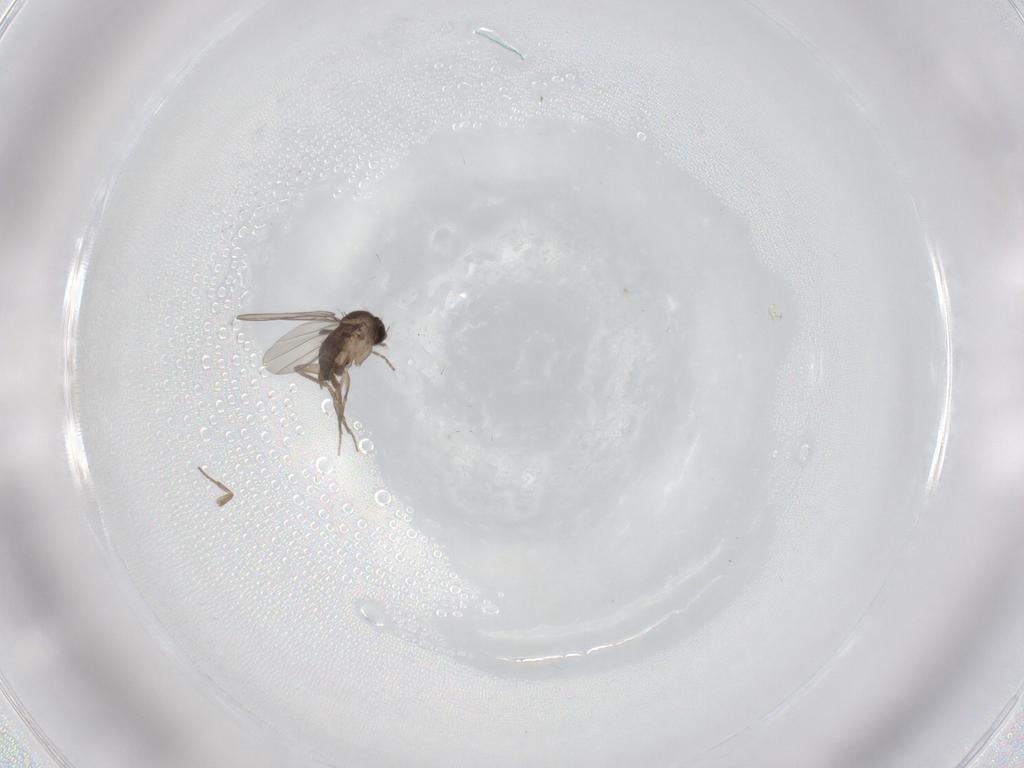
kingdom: Animalia
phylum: Arthropoda
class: Insecta
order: Diptera
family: Phoridae
